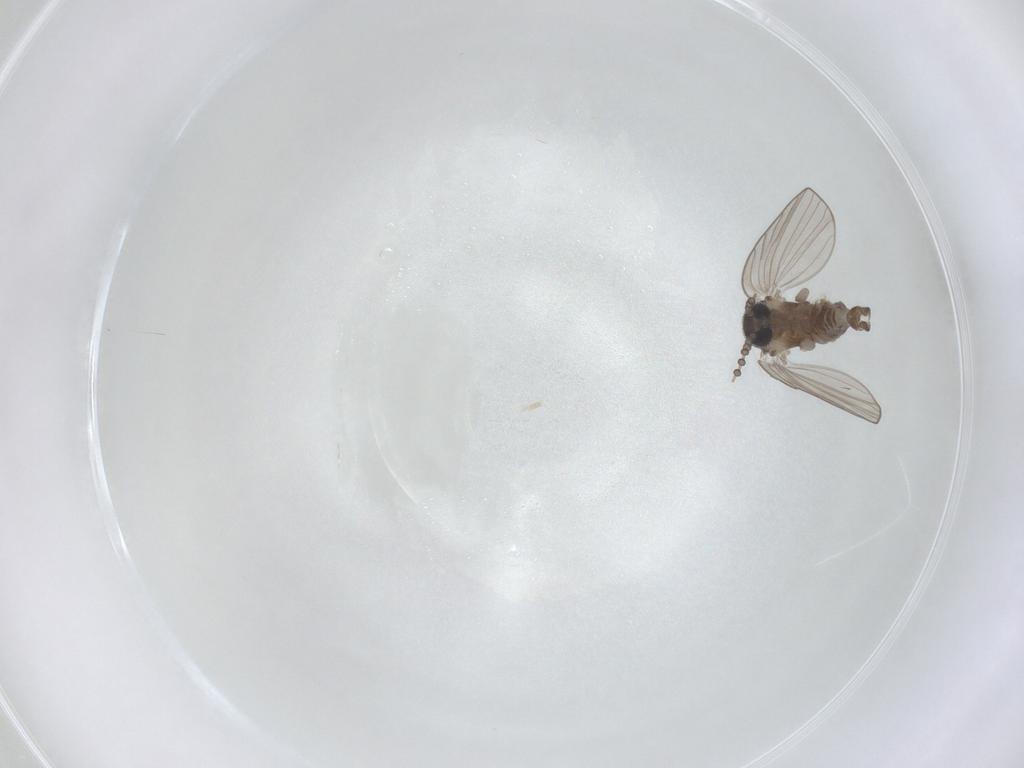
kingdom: Animalia
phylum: Arthropoda
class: Insecta
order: Diptera
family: Psychodidae
